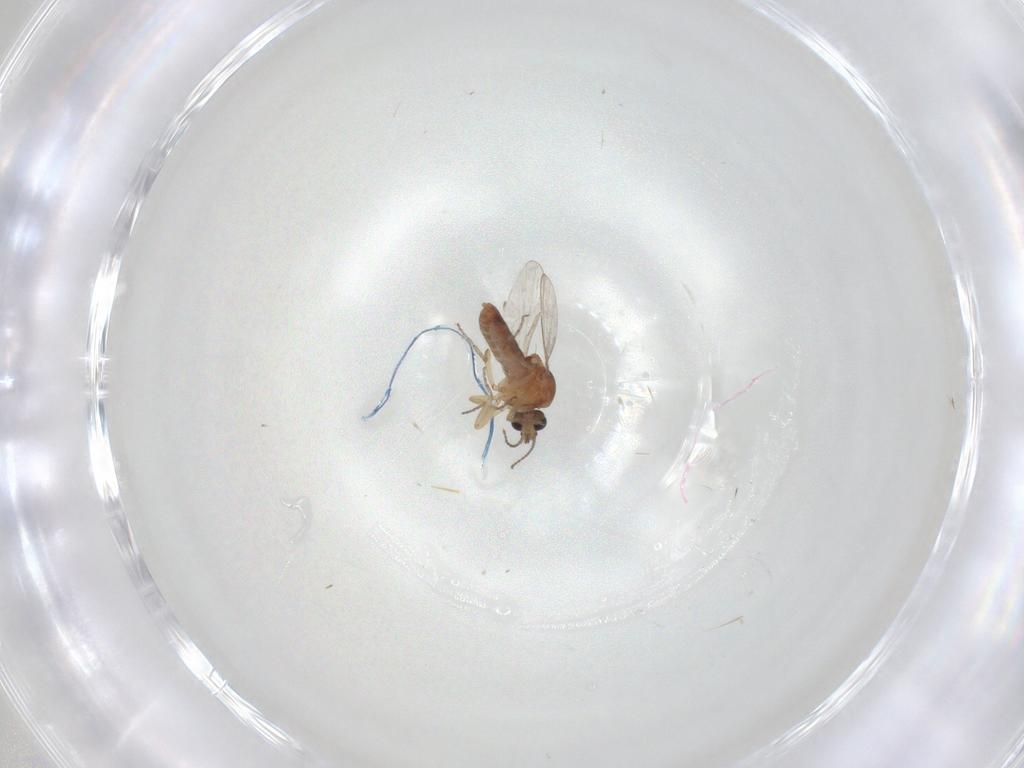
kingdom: Animalia
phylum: Arthropoda
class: Insecta
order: Diptera
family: Ceratopogonidae
